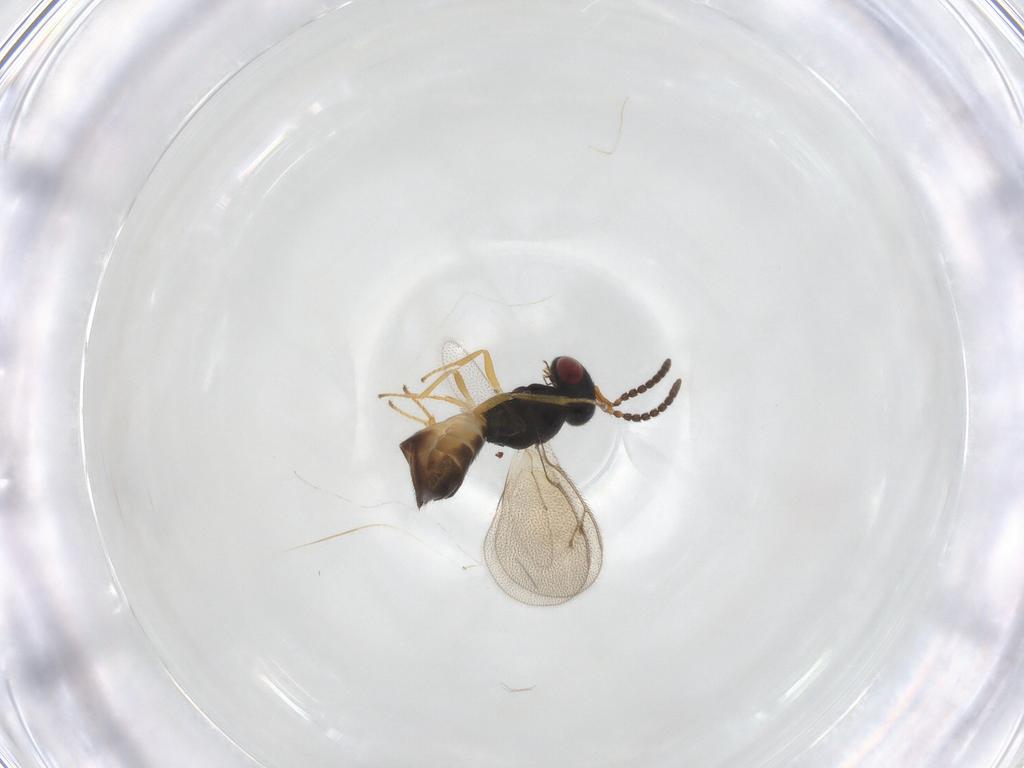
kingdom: Animalia
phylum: Arthropoda
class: Insecta
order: Hymenoptera
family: Pteromalidae
